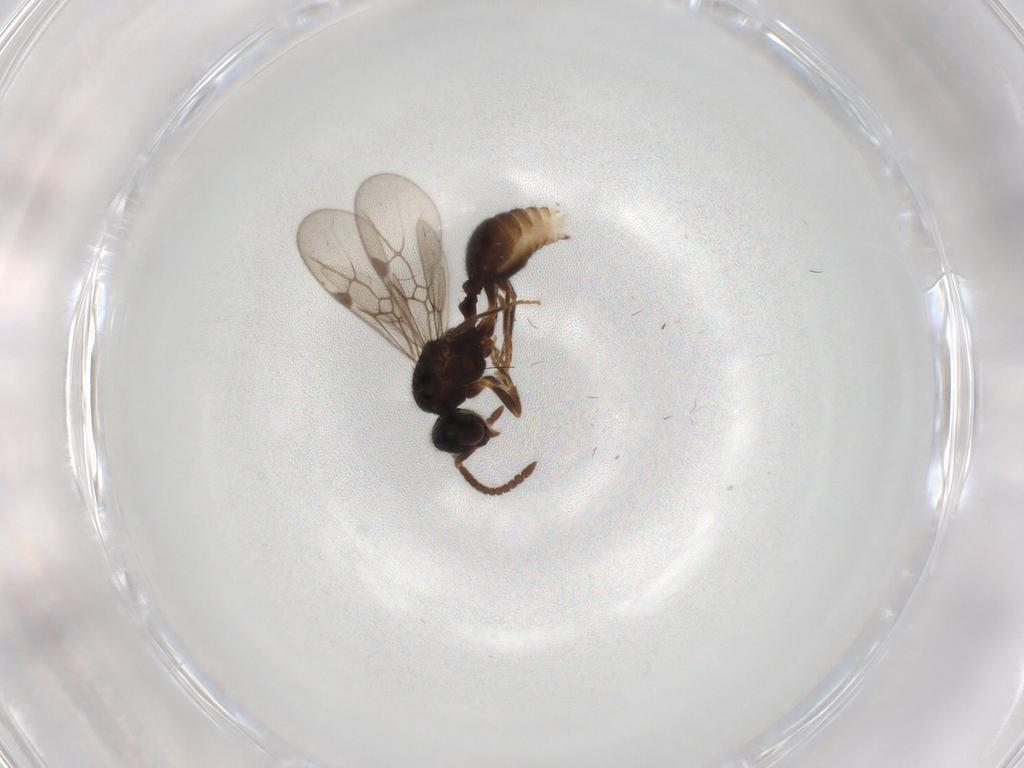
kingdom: Animalia
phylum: Arthropoda
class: Insecta
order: Hymenoptera
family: Formicidae
